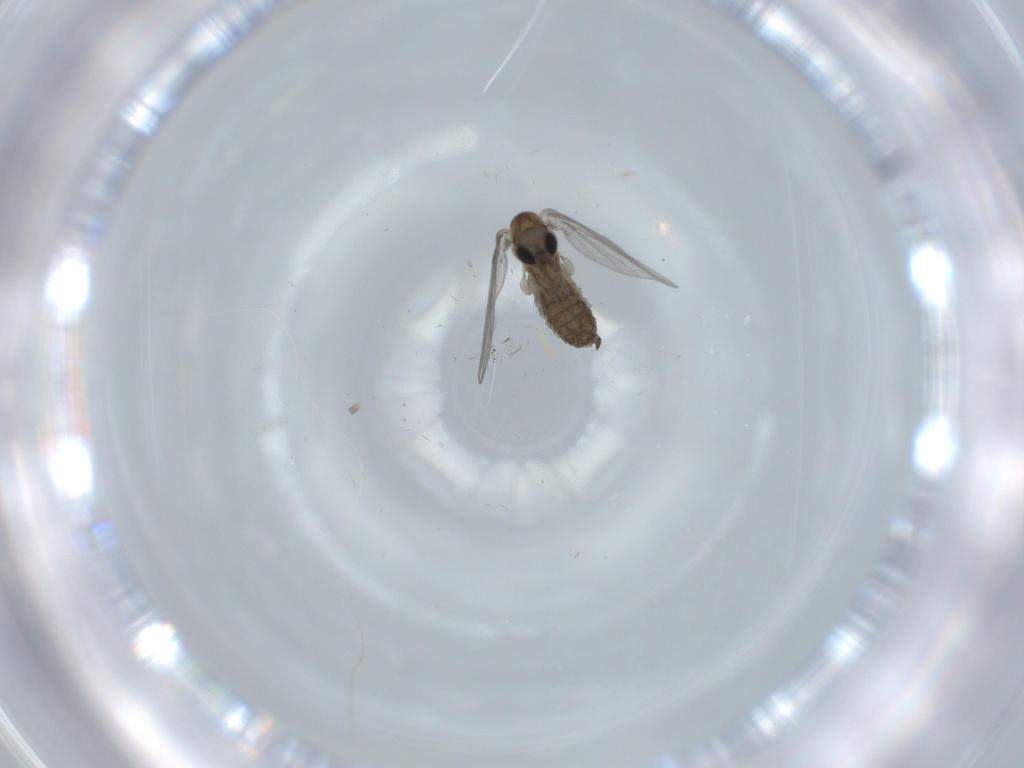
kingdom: Animalia
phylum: Arthropoda
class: Insecta
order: Diptera
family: Psychodidae
